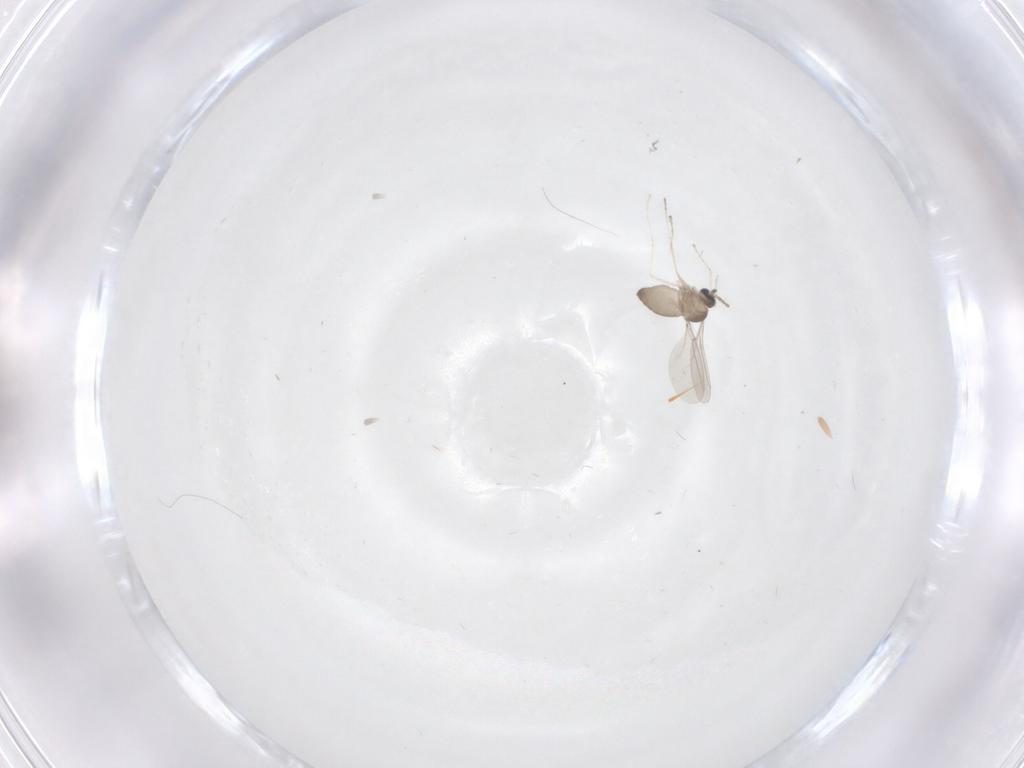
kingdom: Animalia
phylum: Arthropoda
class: Insecta
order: Diptera
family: Cecidomyiidae
